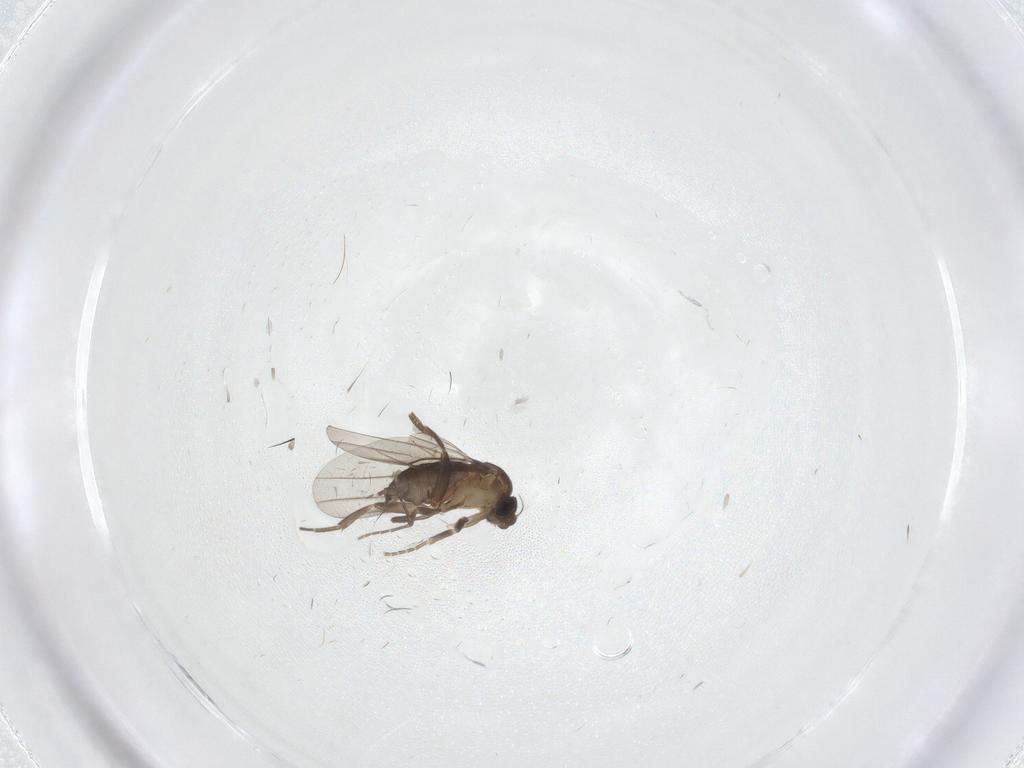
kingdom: Animalia
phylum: Arthropoda
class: Insecta
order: Diptera
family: Chironomidae
